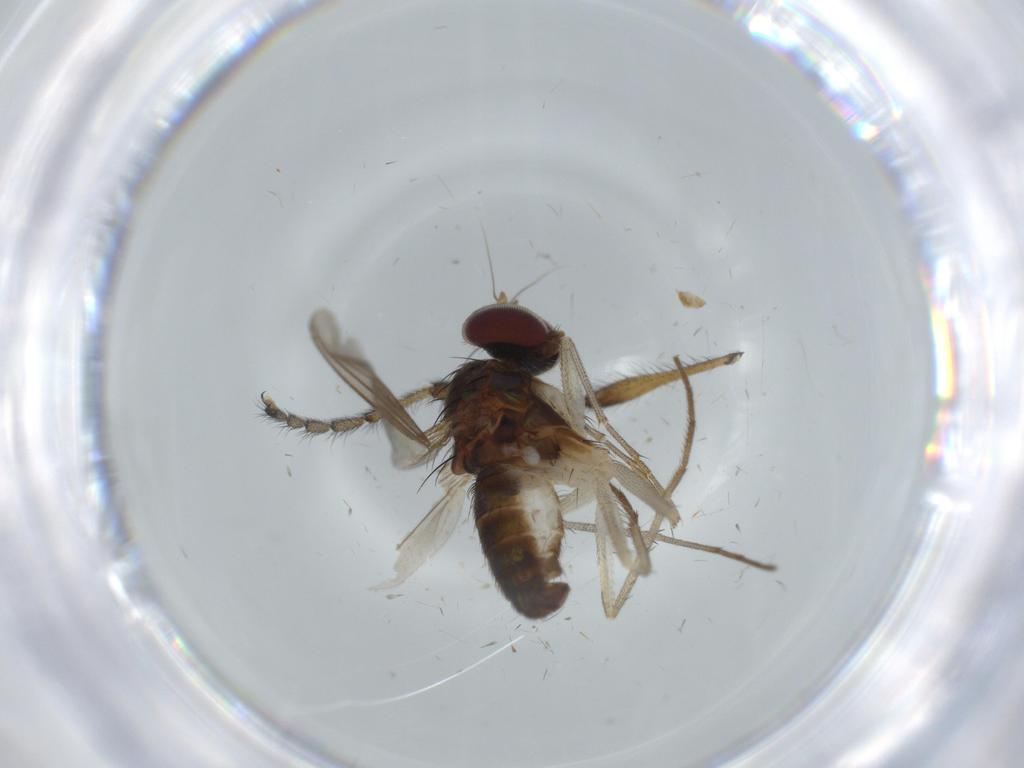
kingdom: Animalia
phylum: Arthropoda
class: Insecta
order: Diptera
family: Dolichopodidae
